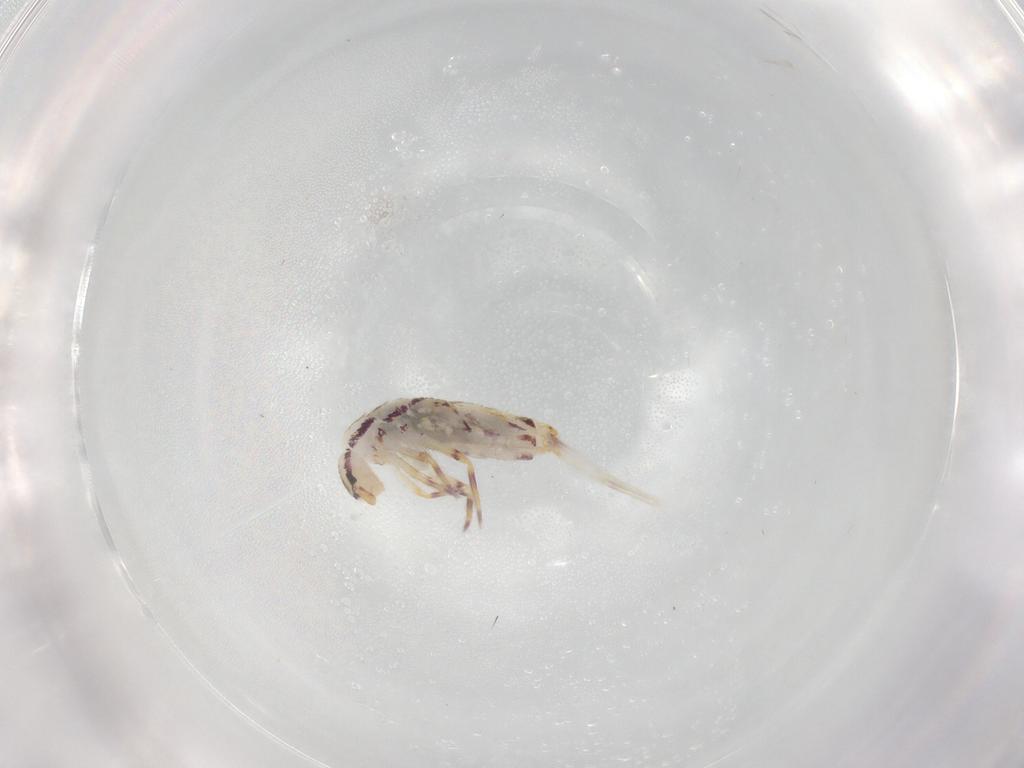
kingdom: Animalia
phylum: Arthropoda
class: Collembola
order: Entomobryomorpha
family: Entomobryidae
